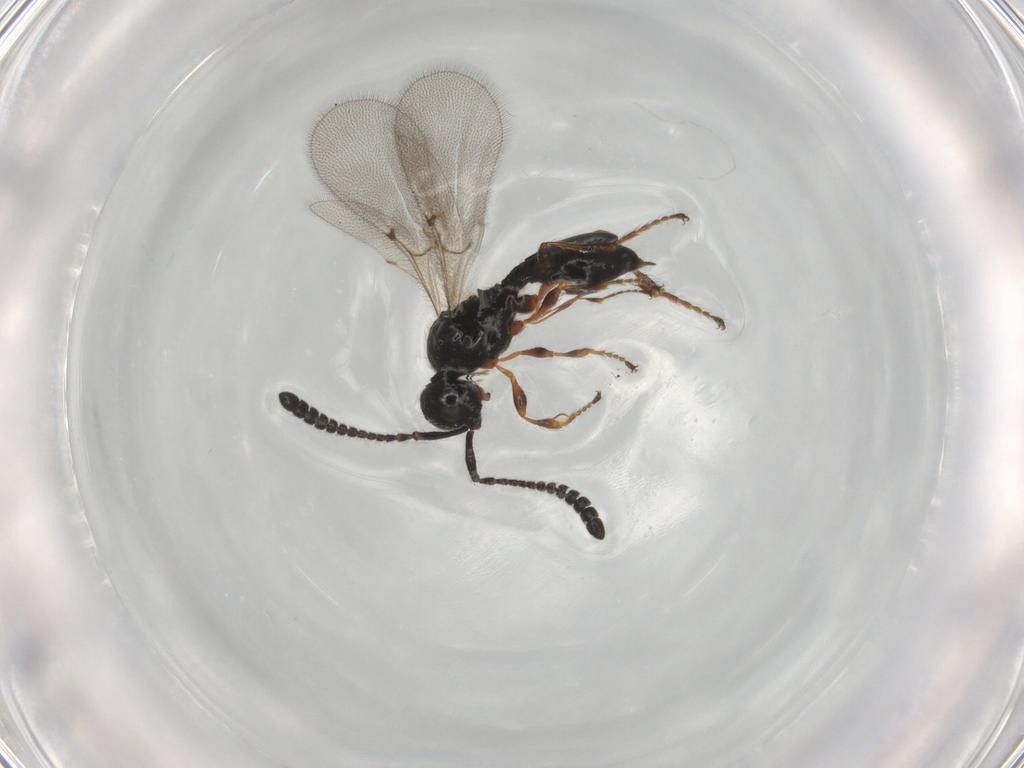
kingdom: Animalia
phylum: Arthropoda
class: Insecta
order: Hymenoptera
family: Diapriidae
